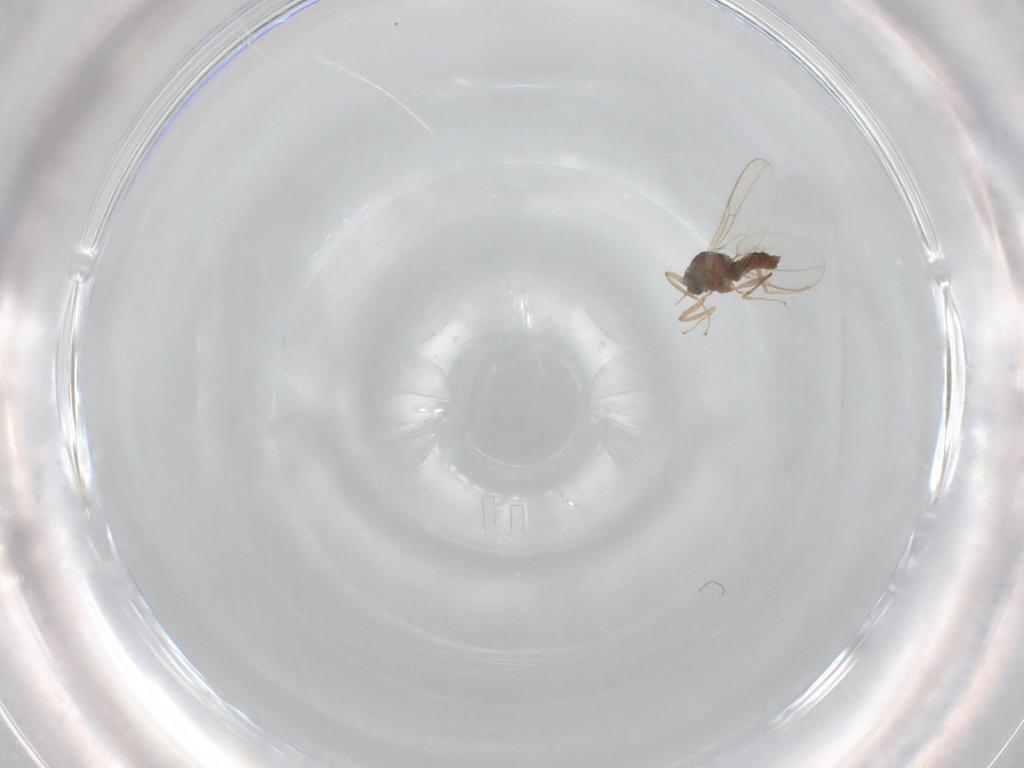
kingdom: Animalia
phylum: Arthropoda
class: Insecta
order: Diptera
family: Cecidomyiidae
